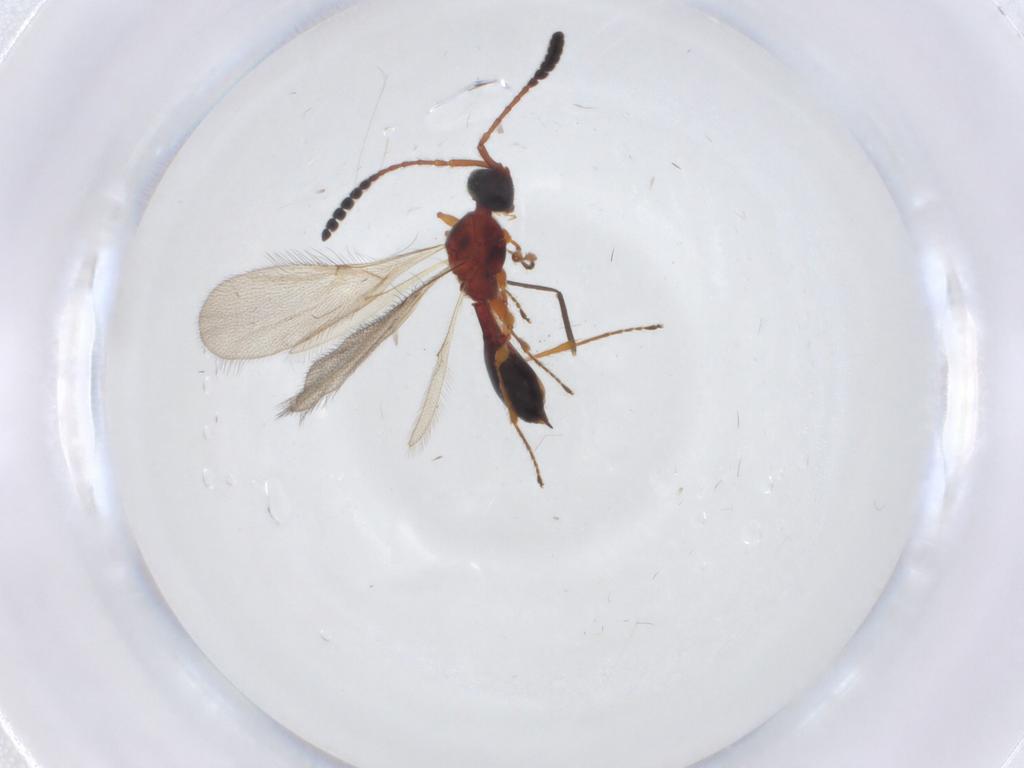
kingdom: Animalia
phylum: Arthropoda
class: Insecta
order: Hymenoptera
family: Diapriidae
